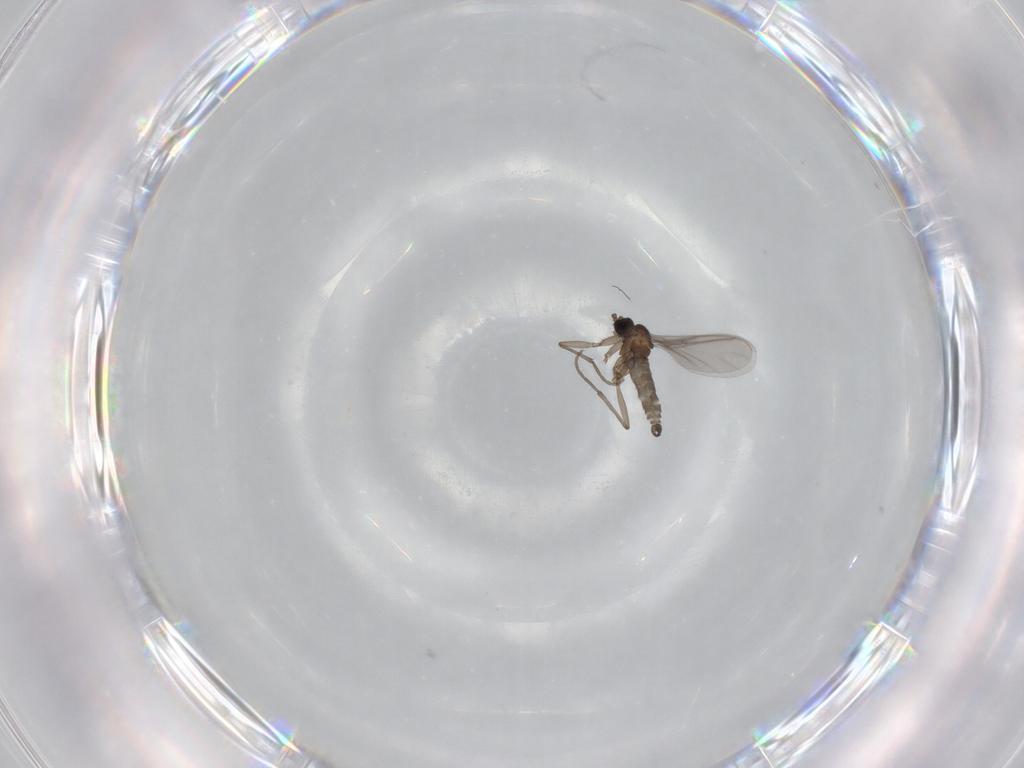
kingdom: Animalia
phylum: Arthropoda
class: Insecta
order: Diptera
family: Sciaridae
